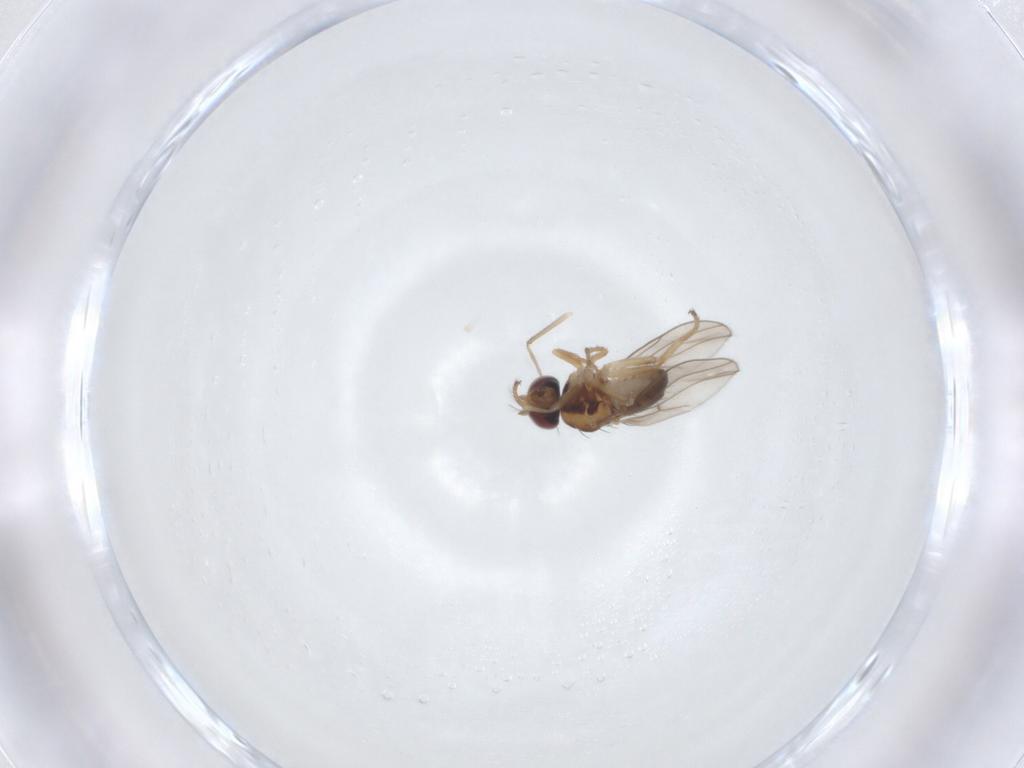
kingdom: Animalia
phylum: Arthropoda
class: Insecta
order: Diptera
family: Ephydridae
